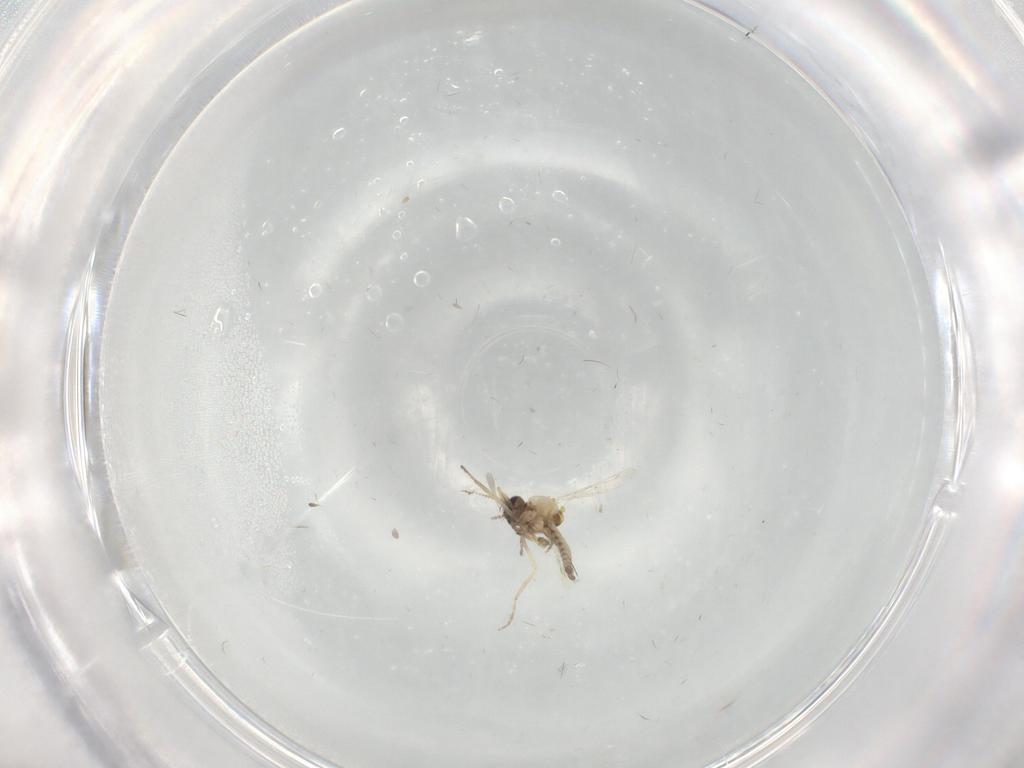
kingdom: Animalia
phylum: Arthropoda
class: Insecta
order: Diptera
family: Ceratopogonidae
